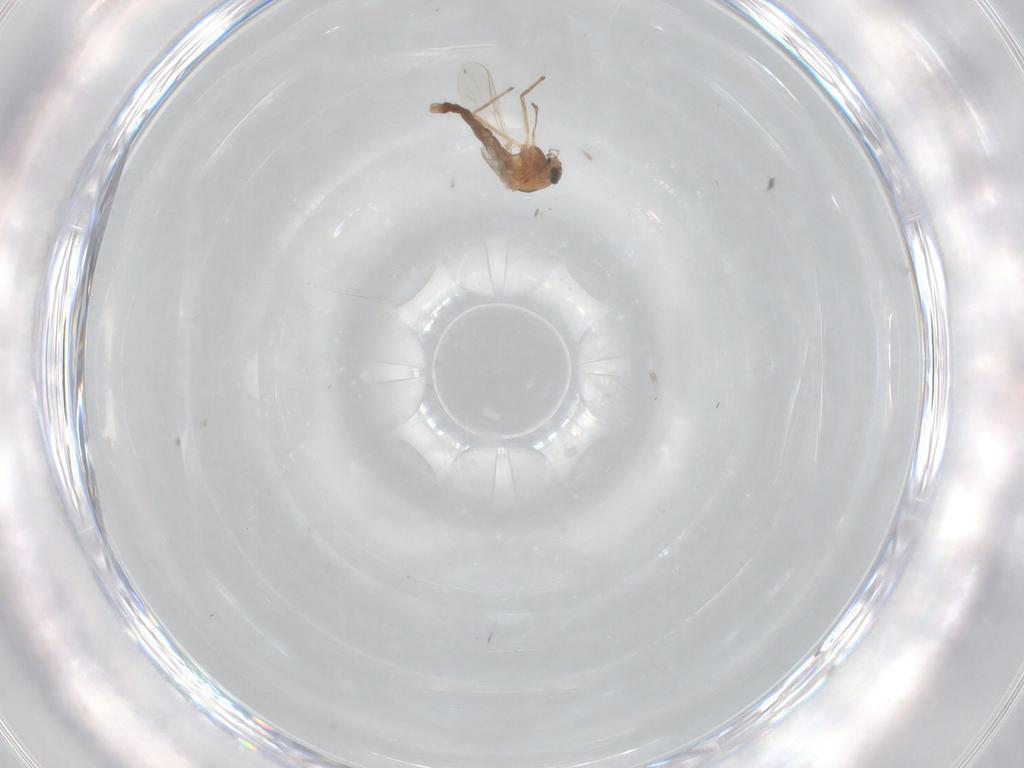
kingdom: Animalia
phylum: Arthropoda
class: Insecta
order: Diptera
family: Chironomidae
